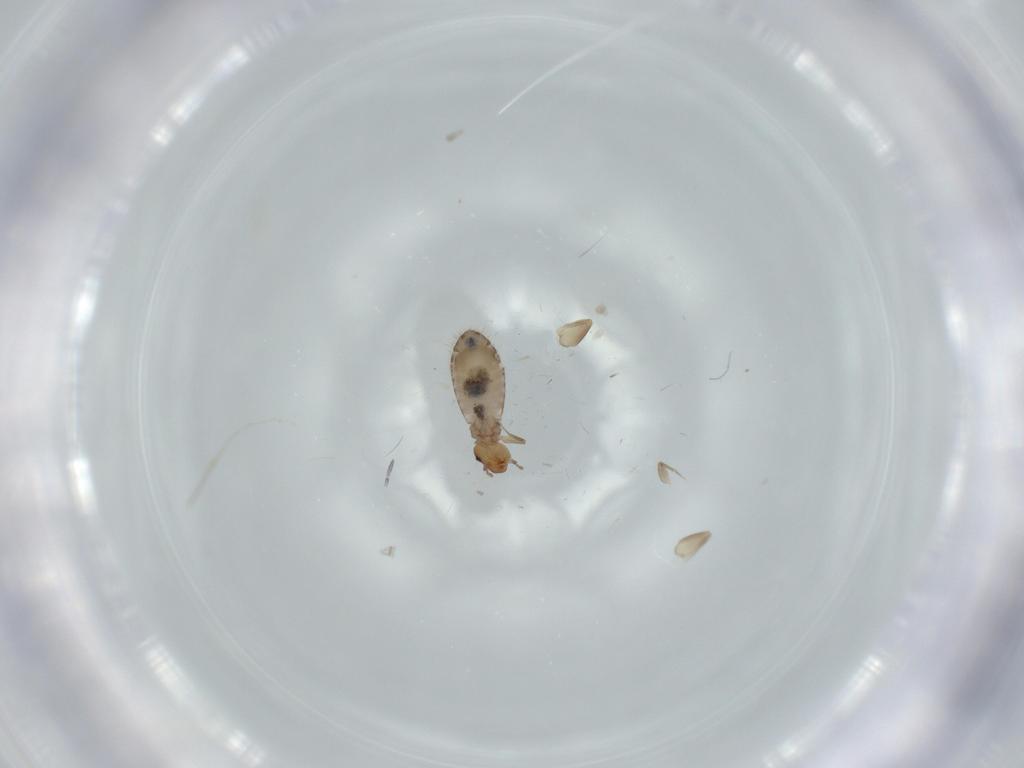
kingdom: Animalia
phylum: Arthropoda
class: Insecta
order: Psocodea
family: Liposcelididae
